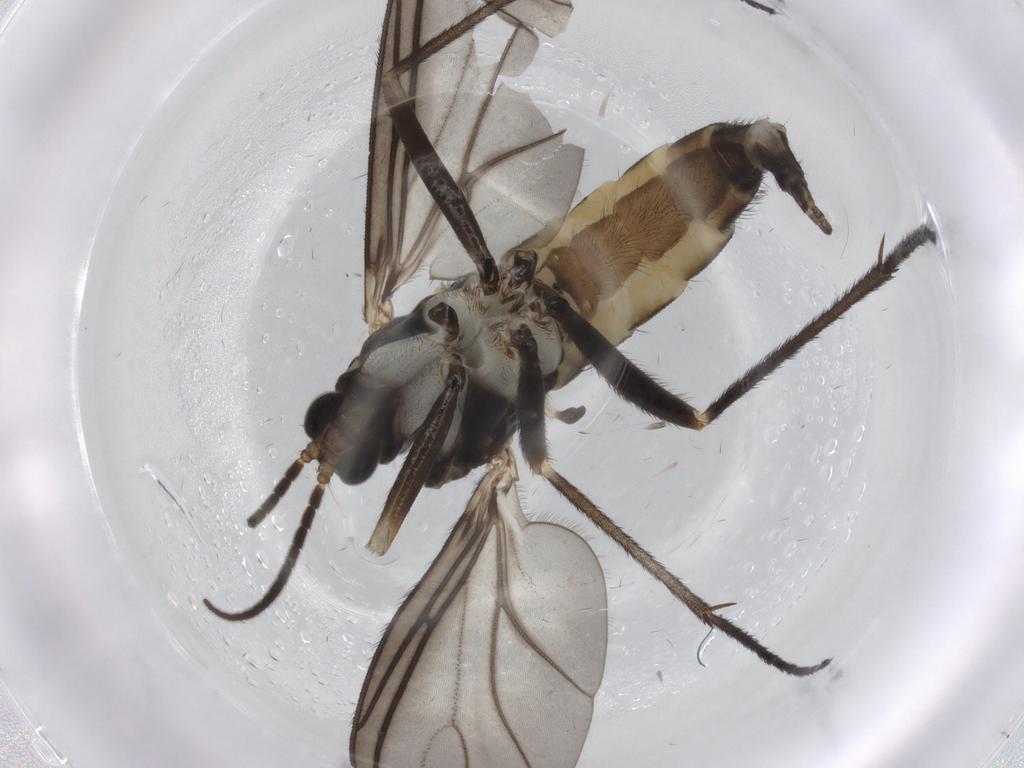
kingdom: Animalia
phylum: Arthropoda
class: Insecta
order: Diptera
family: Sciaridae
